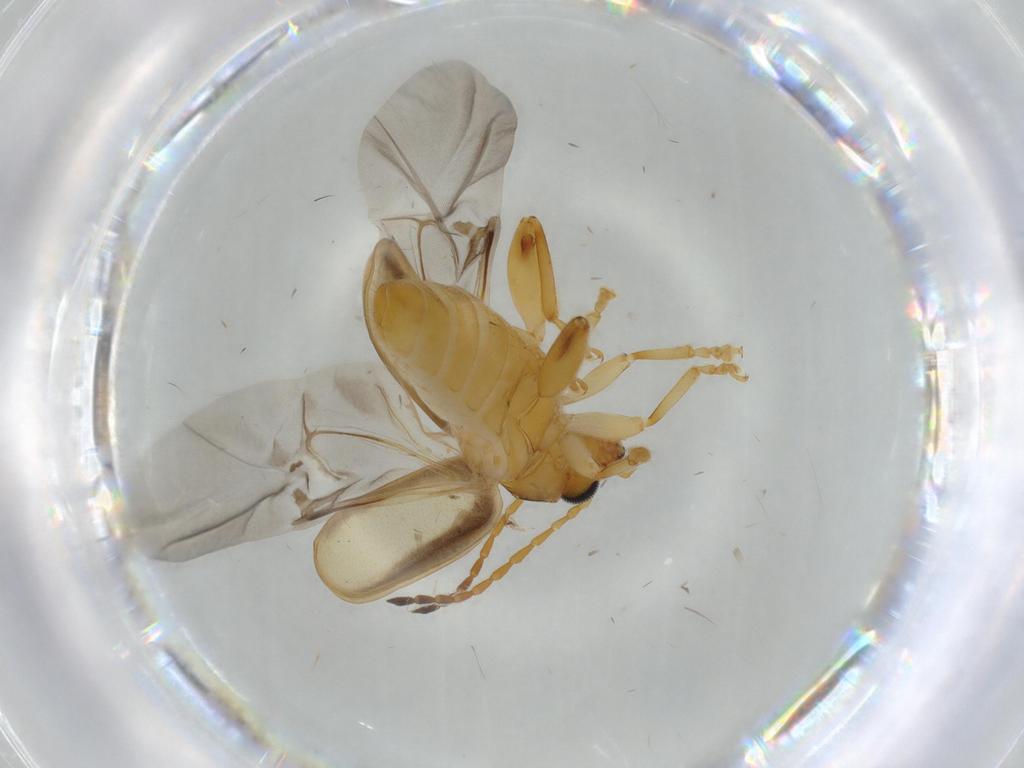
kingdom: Animalia
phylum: Arthropoda
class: Insecta
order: Coleoptera
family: Chrysomelidae
